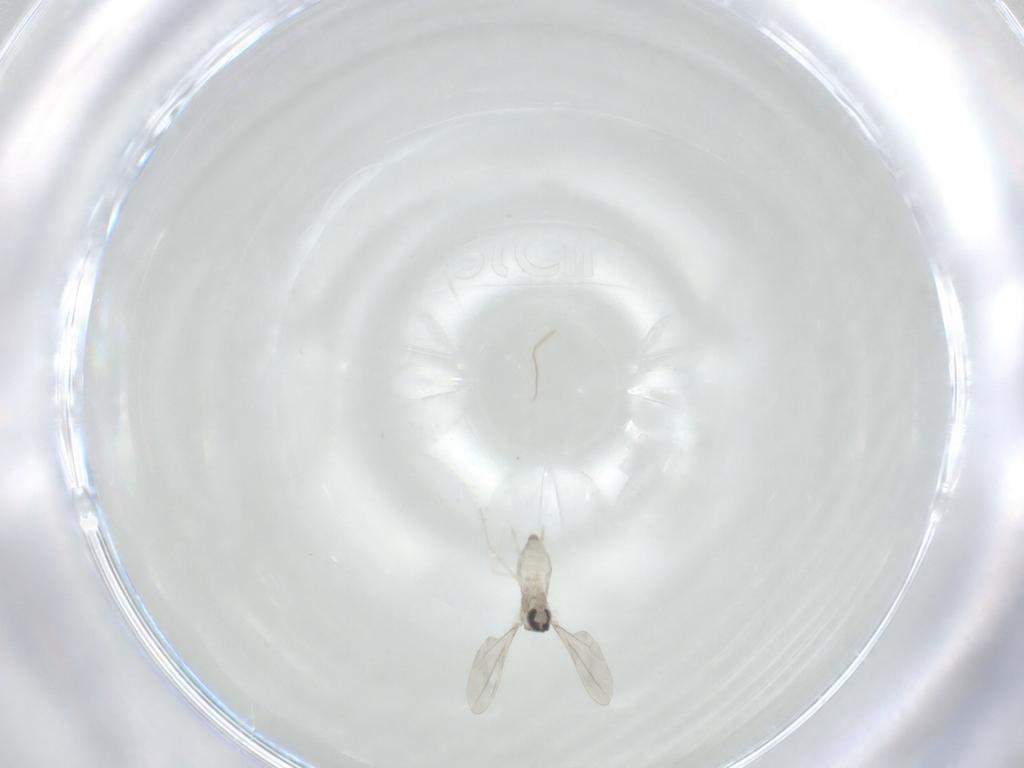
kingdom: Animalia
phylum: Arthropoda
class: Insecta
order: Diptera
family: Cecidomyiidae
